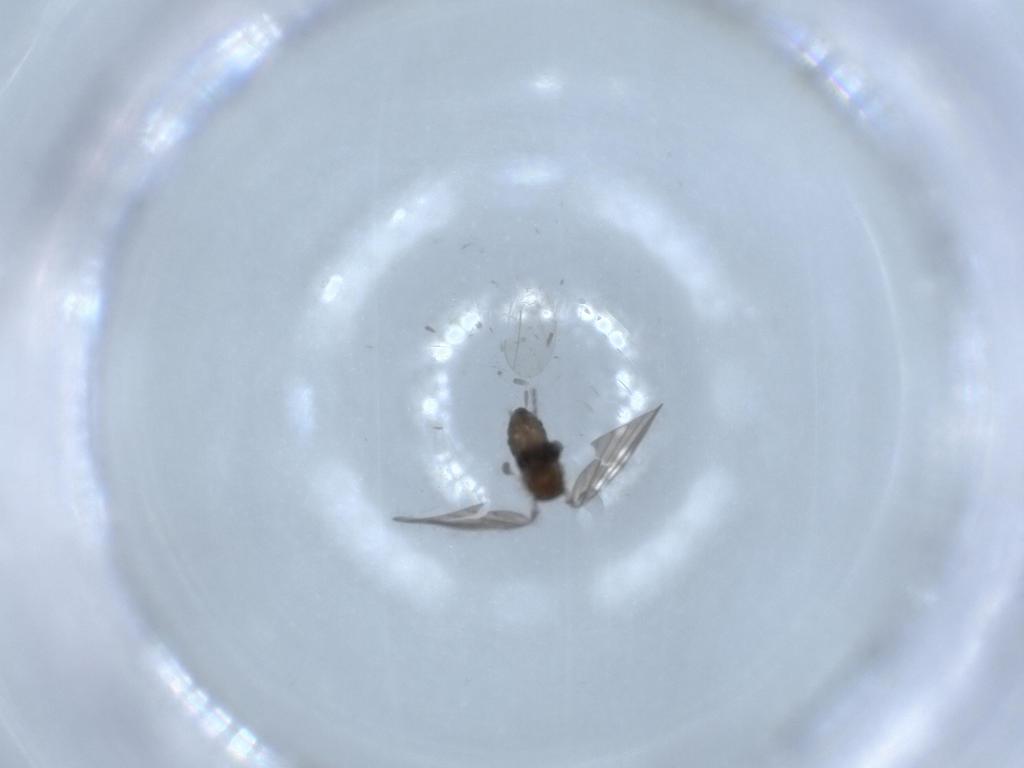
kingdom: Animalia
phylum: Arthropoda
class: Insecta
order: Diptera
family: Psychodidae
